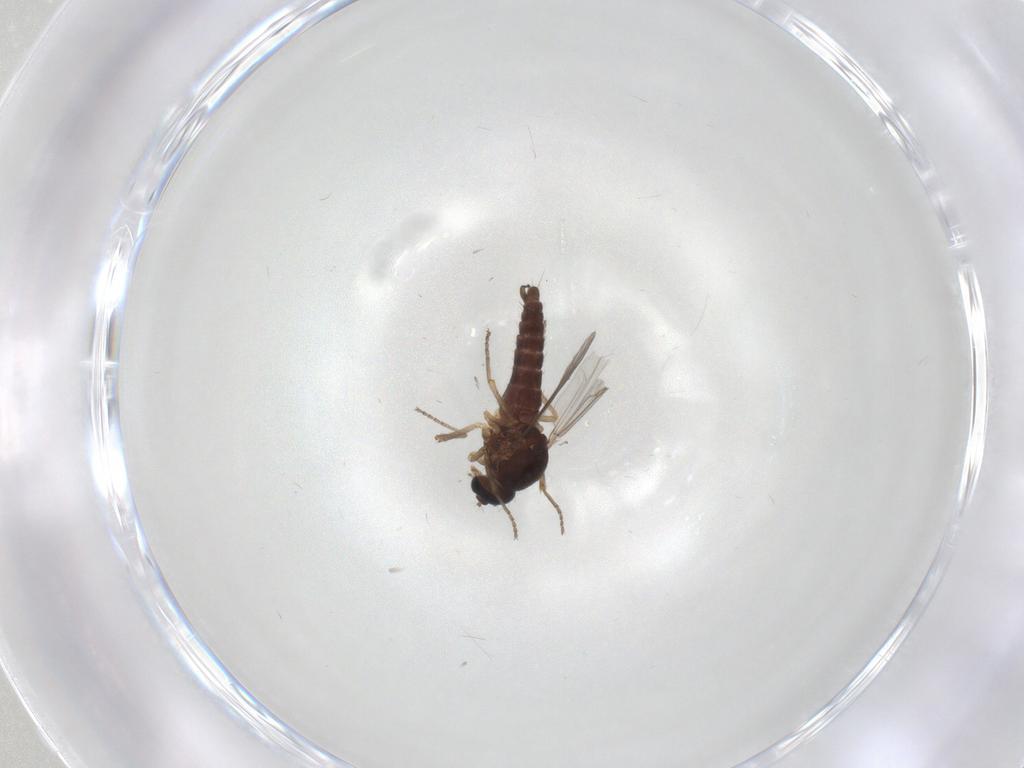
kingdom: Animalia
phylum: Arthropoda
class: Insecta
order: Diptera
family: Ceratopogonidae
